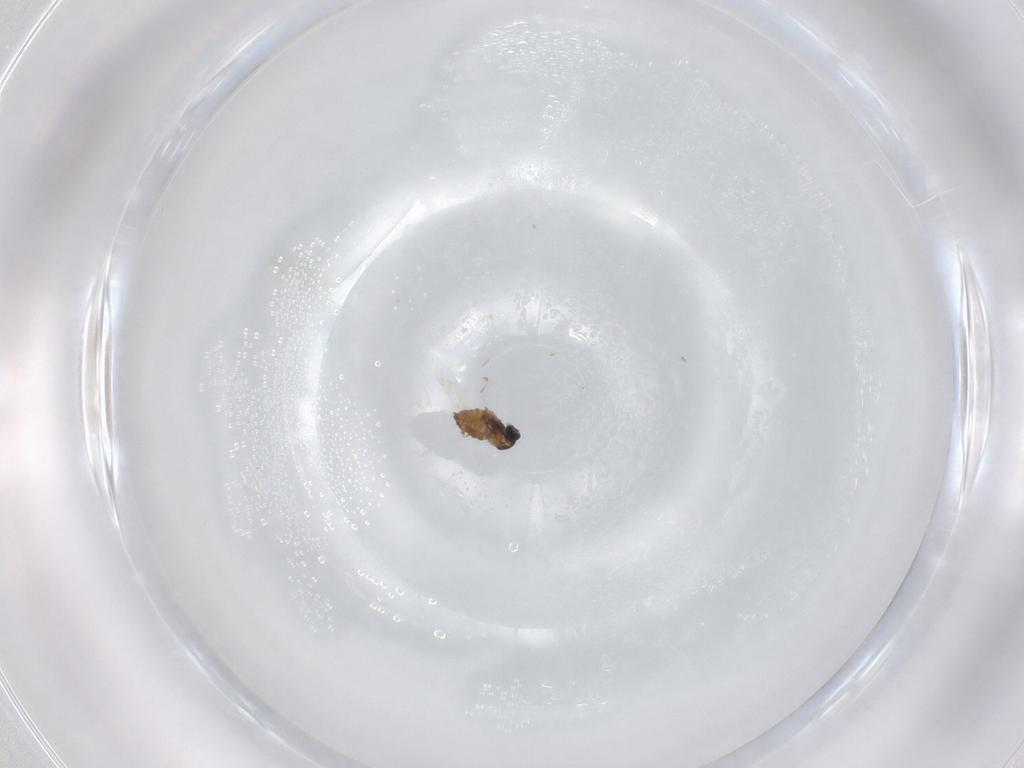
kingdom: Animalia
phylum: Arthropoda
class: Insecta
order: Diptera
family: Cecidomyiidae
